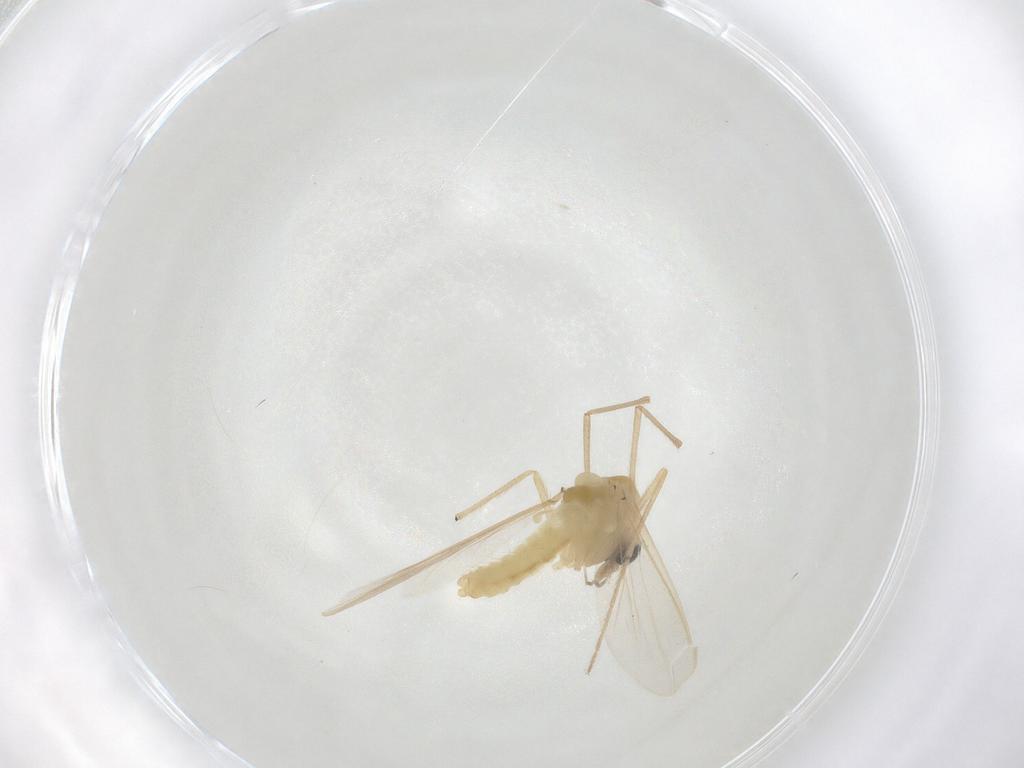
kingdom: Animalia
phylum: Arthropoda
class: Insecta
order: Diptera
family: Chironomidae
